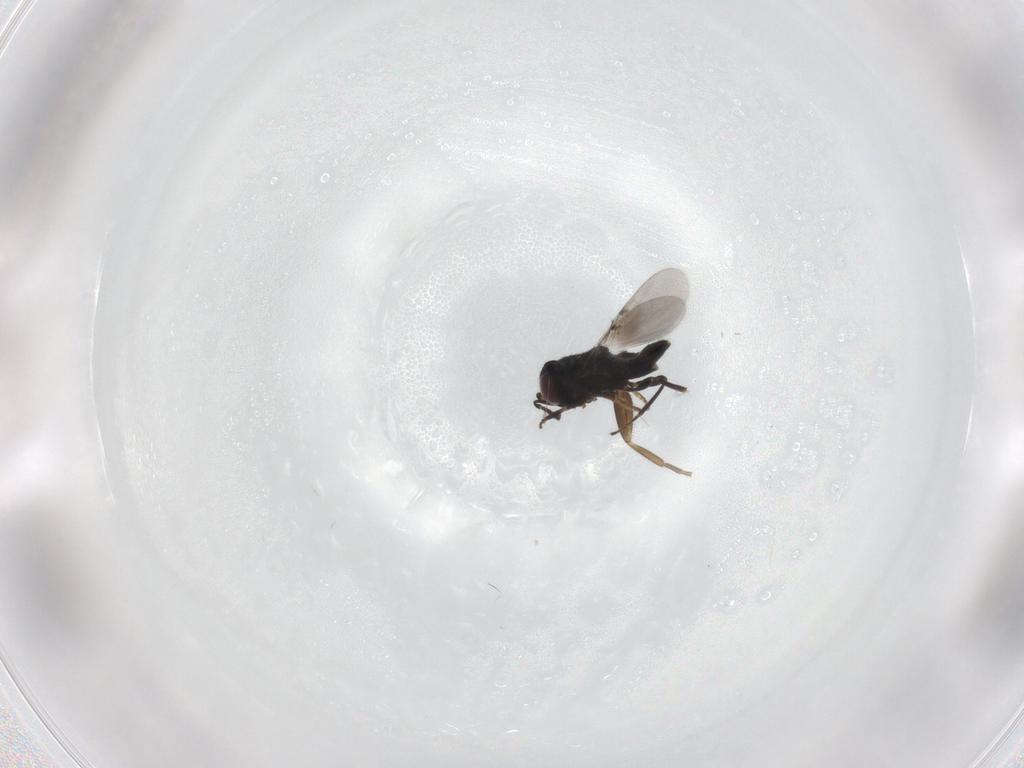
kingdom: Animalia
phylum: Arthropoda
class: Insecta
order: Hymenoptera
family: Encyrtidae
